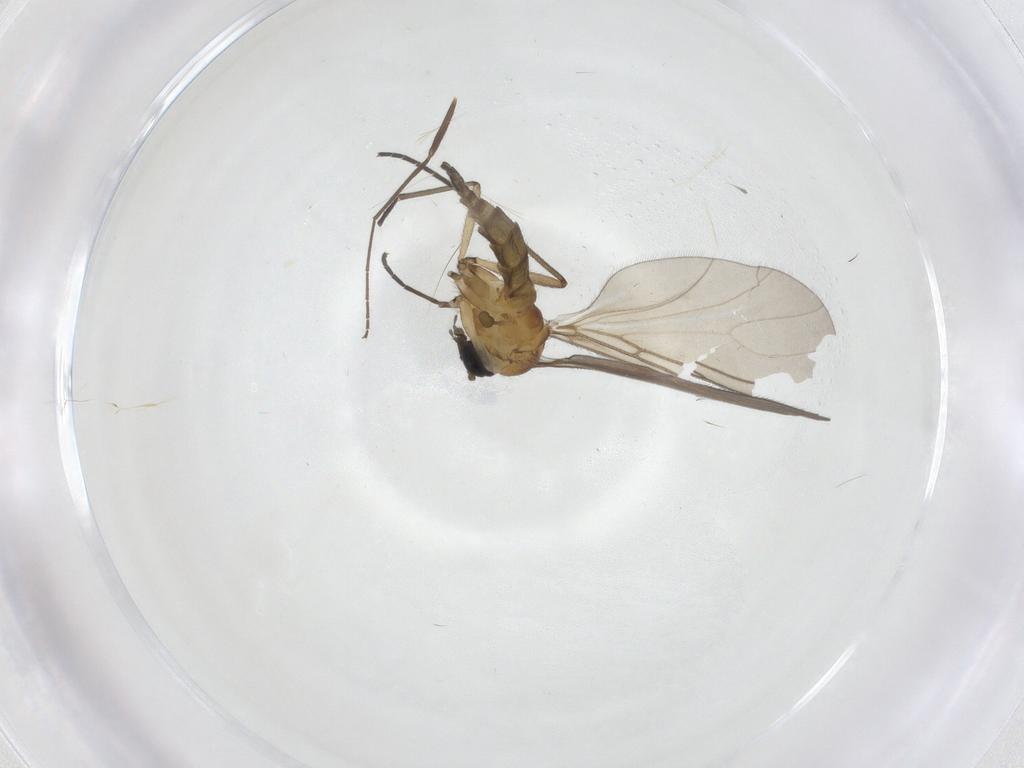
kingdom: Animalia
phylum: Arthropoda
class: Insecta
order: Diptera
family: Sciaridae
